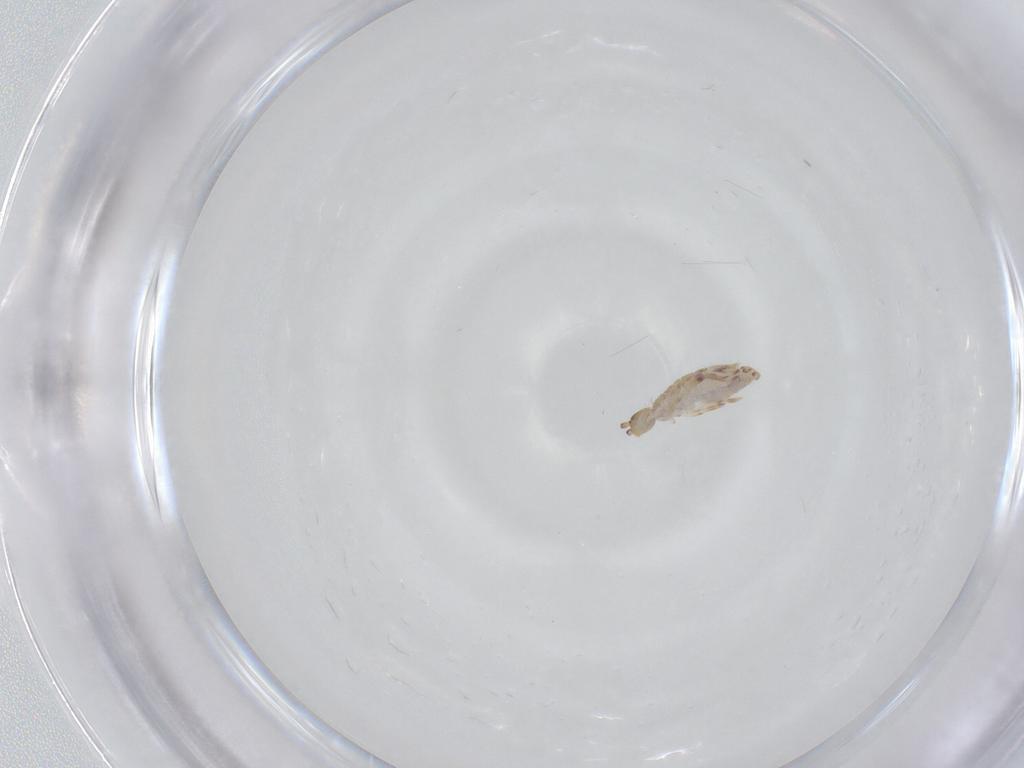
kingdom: Animalia
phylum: Arthropoda
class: Collembola
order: Entomobryomorpha
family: Entomobryidae
